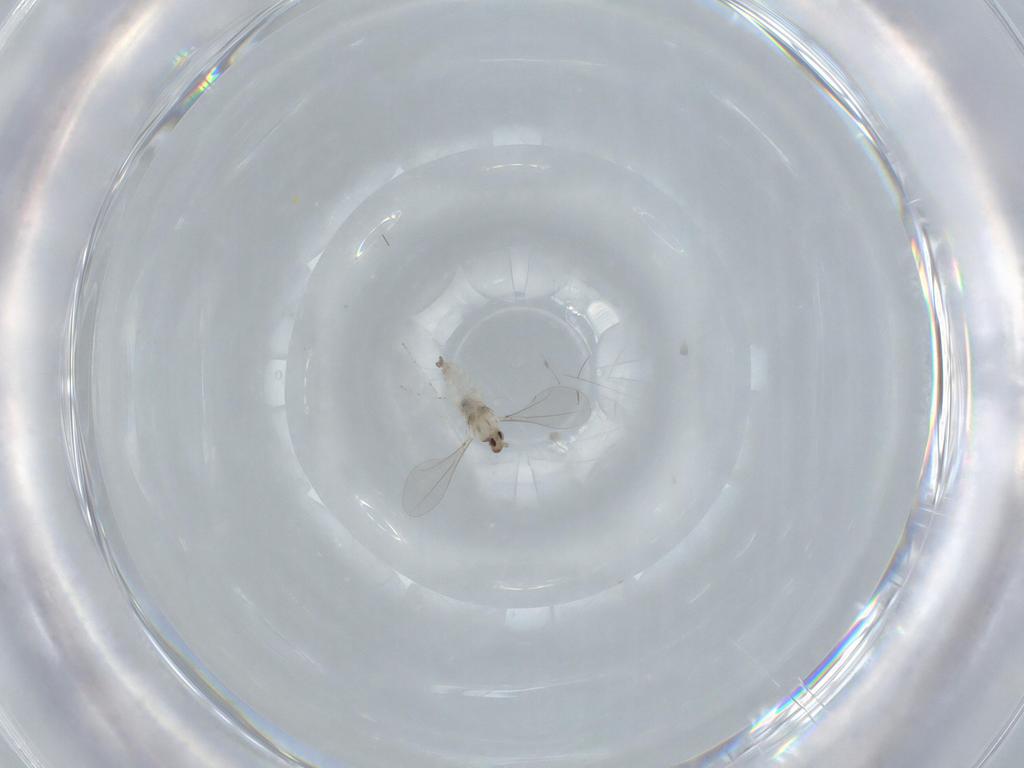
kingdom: Animalia
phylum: Arthropoda
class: Insecta
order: Diptera
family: Cecidomyiidae
